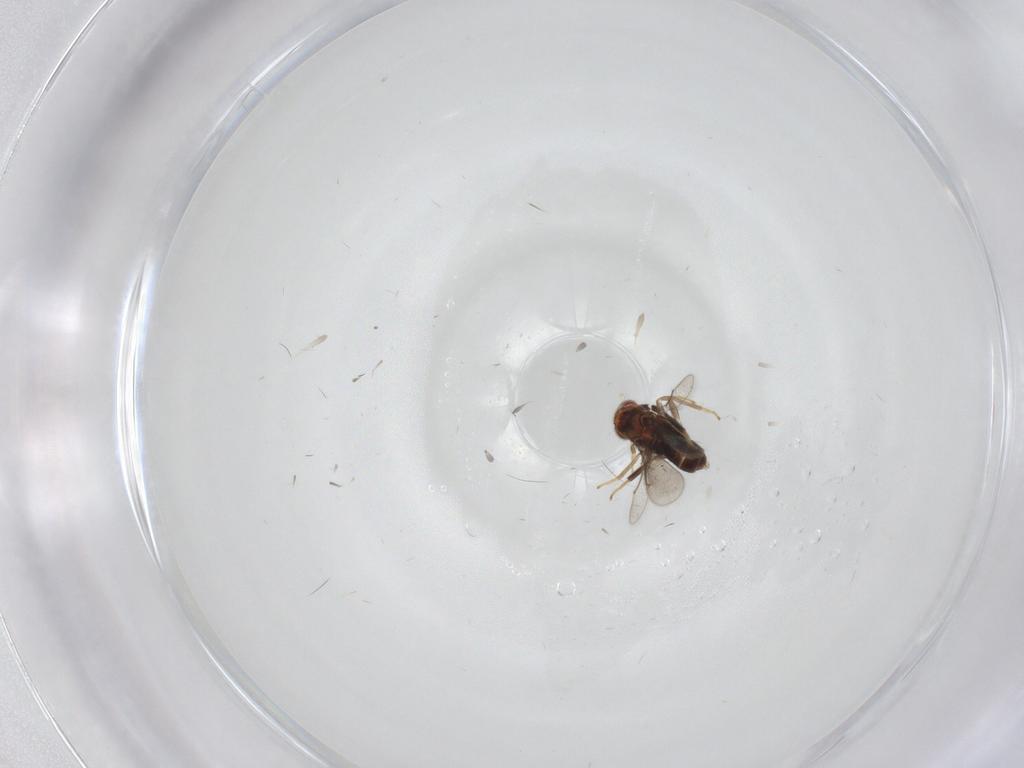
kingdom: Animalia
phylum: Arthropoda
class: Insecta
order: Hymenoptera
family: Aphelinidae
